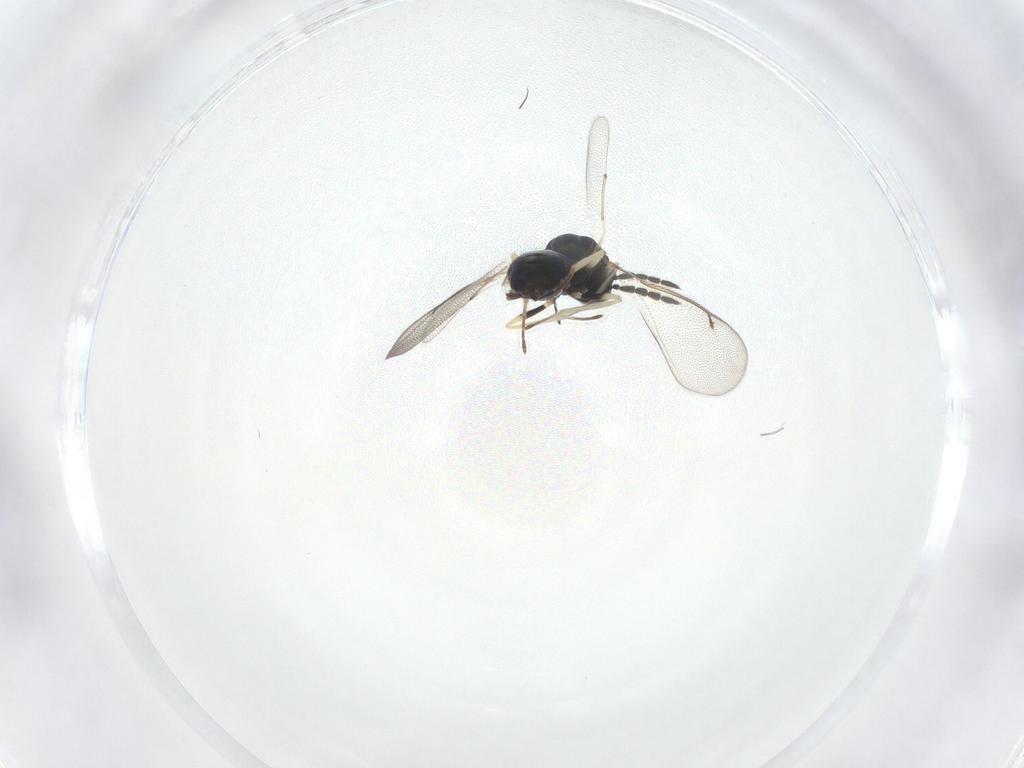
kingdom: Animalia
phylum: Arthropoda
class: Insecta
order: Hymenoptera
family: Eulophidae
